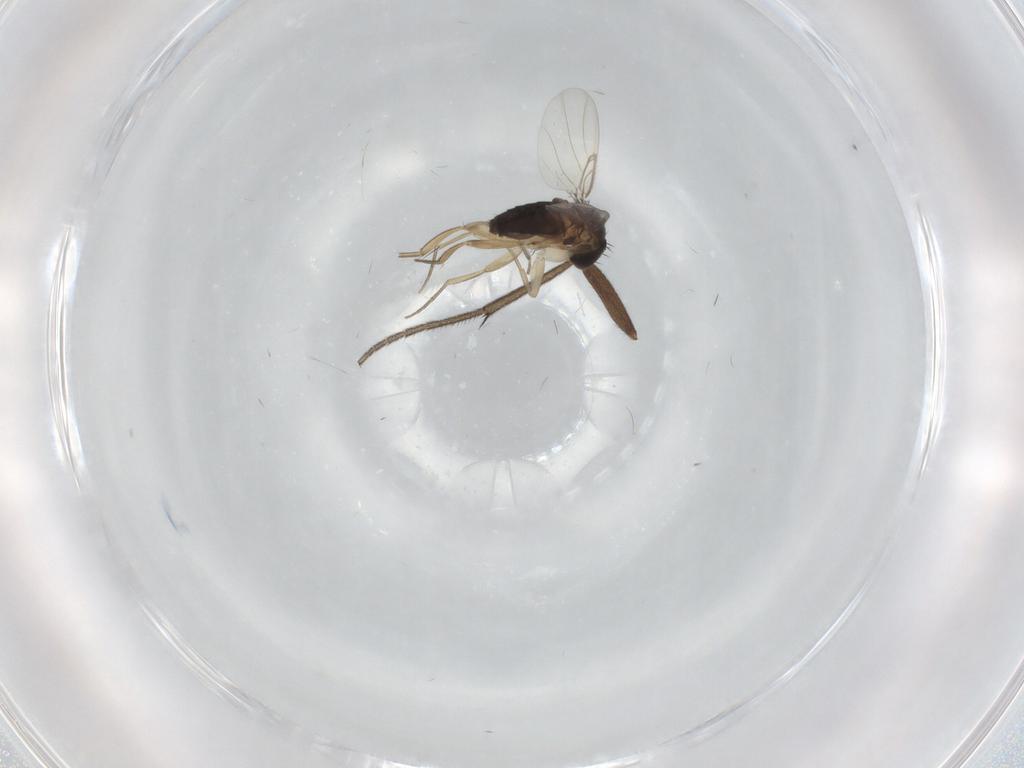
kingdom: Animalia
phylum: Arthropoda
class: Insecta
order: Diptera
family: Phoridae
